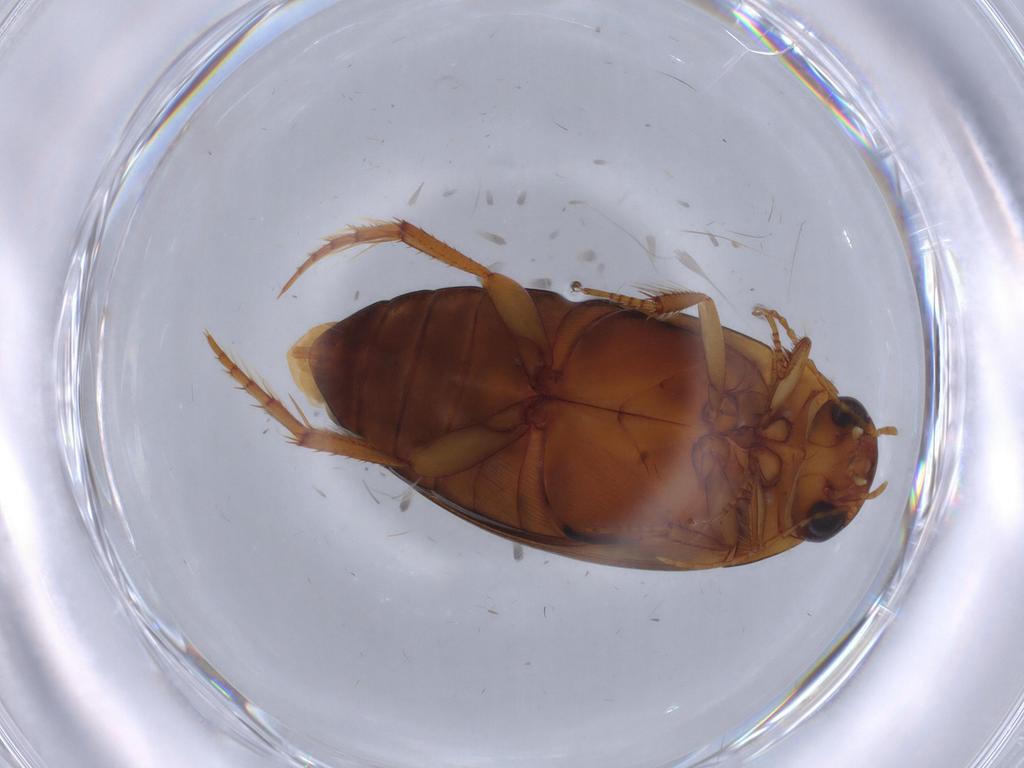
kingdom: Animalia
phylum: Arthropoda
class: Insecta
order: Coleoptera
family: Dytiscidae
